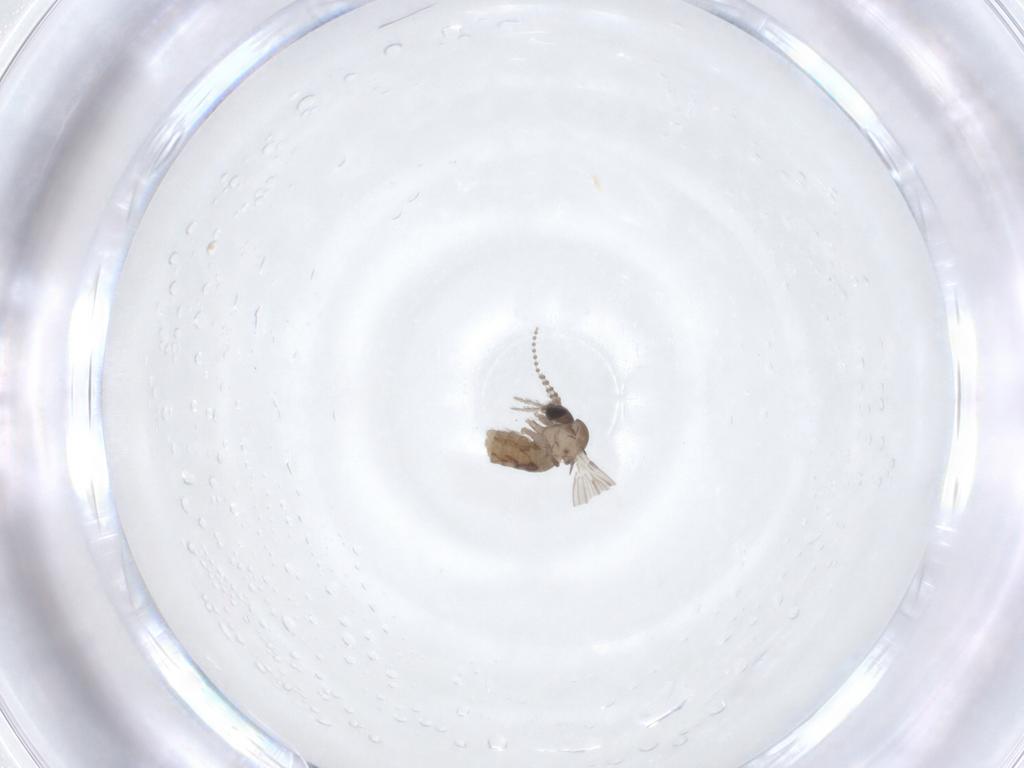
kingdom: Animalia
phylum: Arthropoda
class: Insecta
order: Diptera
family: Psychodidae
